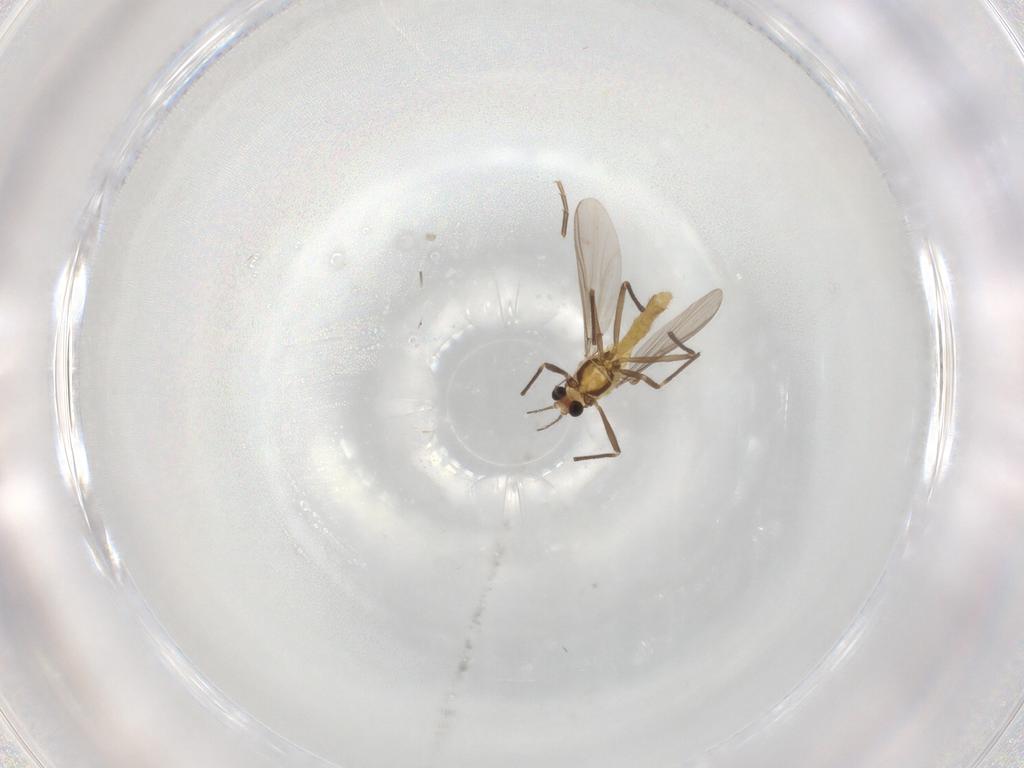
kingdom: Animalia
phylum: Arthropoda
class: Insecta
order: Diptera
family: Chironomidae
